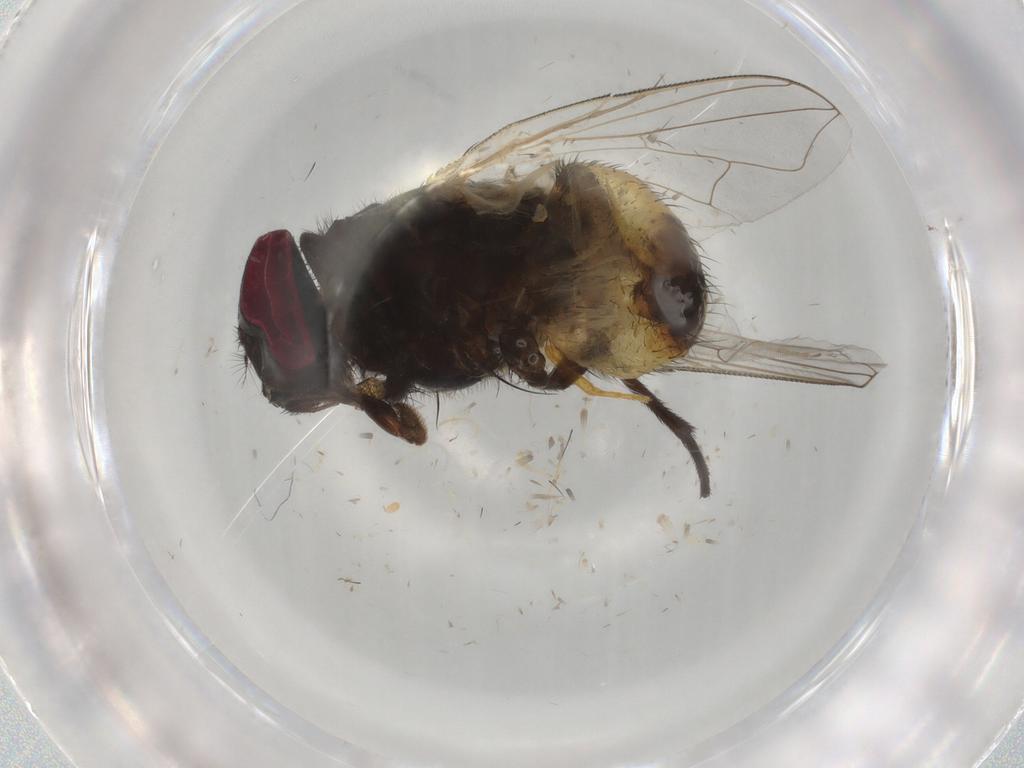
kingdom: Animalia
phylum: Arthropoda
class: Insecta
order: Diptera
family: Muscidae
